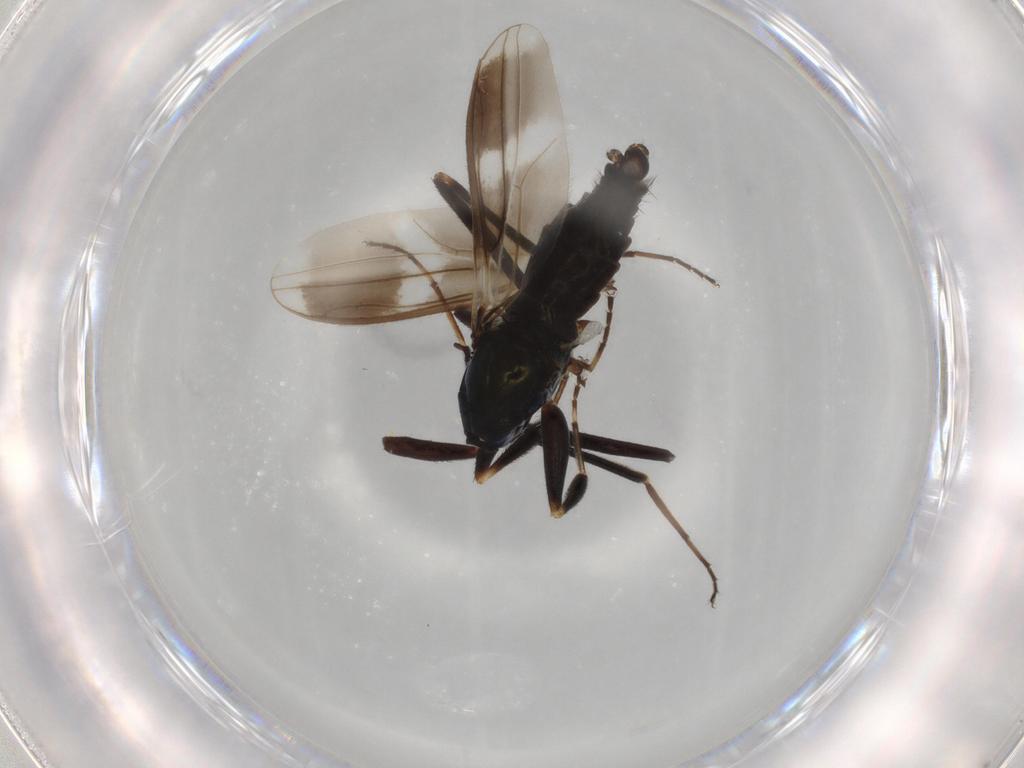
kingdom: Animalia
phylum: Arthropoda
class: Insecta
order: Diptera
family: Hybotidae
